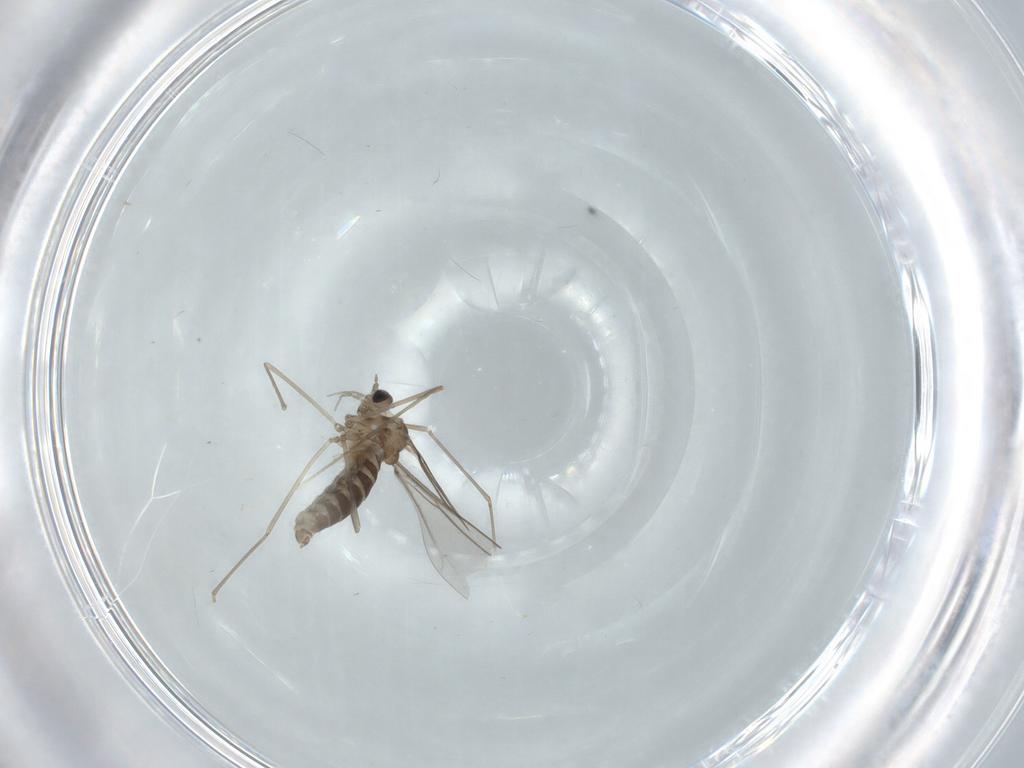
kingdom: Animalia
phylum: Arthropoda
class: Insecta
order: Diptera
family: Cecidomyiidae
